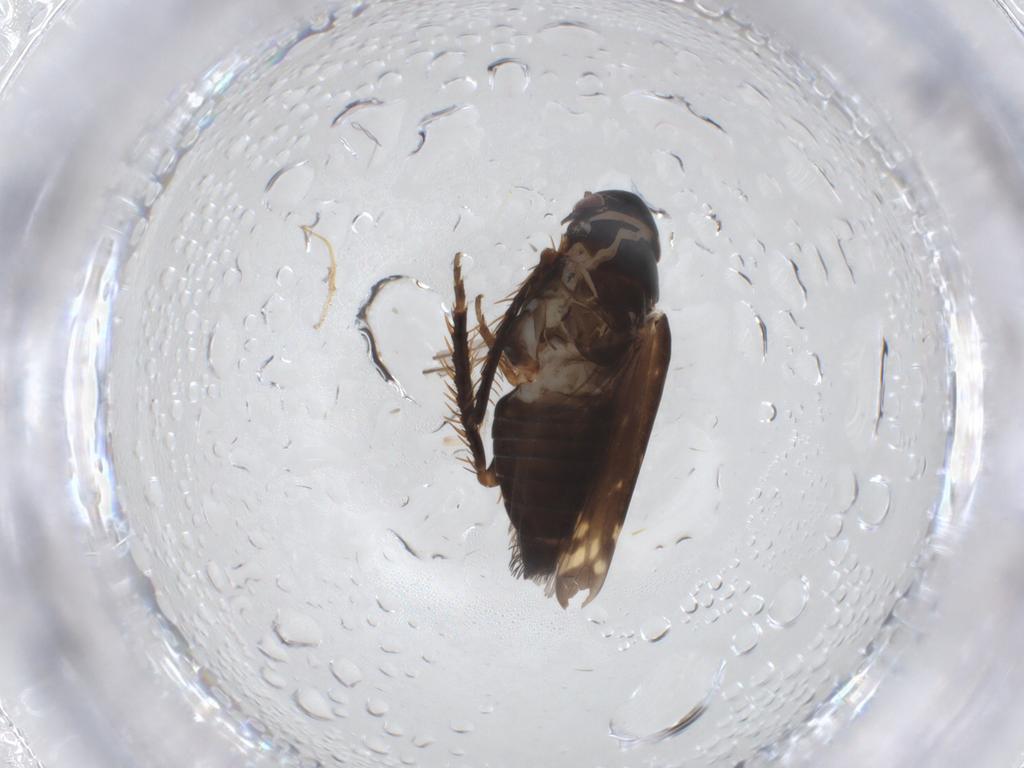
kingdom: Animalia
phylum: Arthropoda
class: Insecta
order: Hemiptera
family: Cicadellidae
